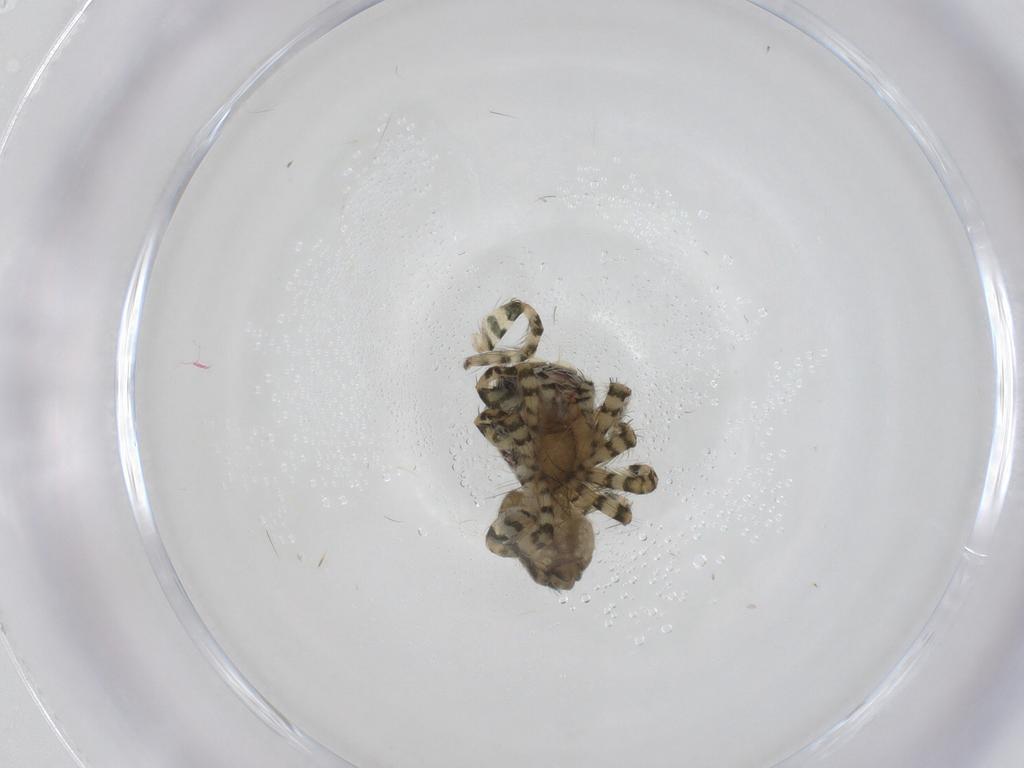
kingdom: Animalia
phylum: Arthropoda
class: Arachnida
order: Araneae
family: Salticidae
